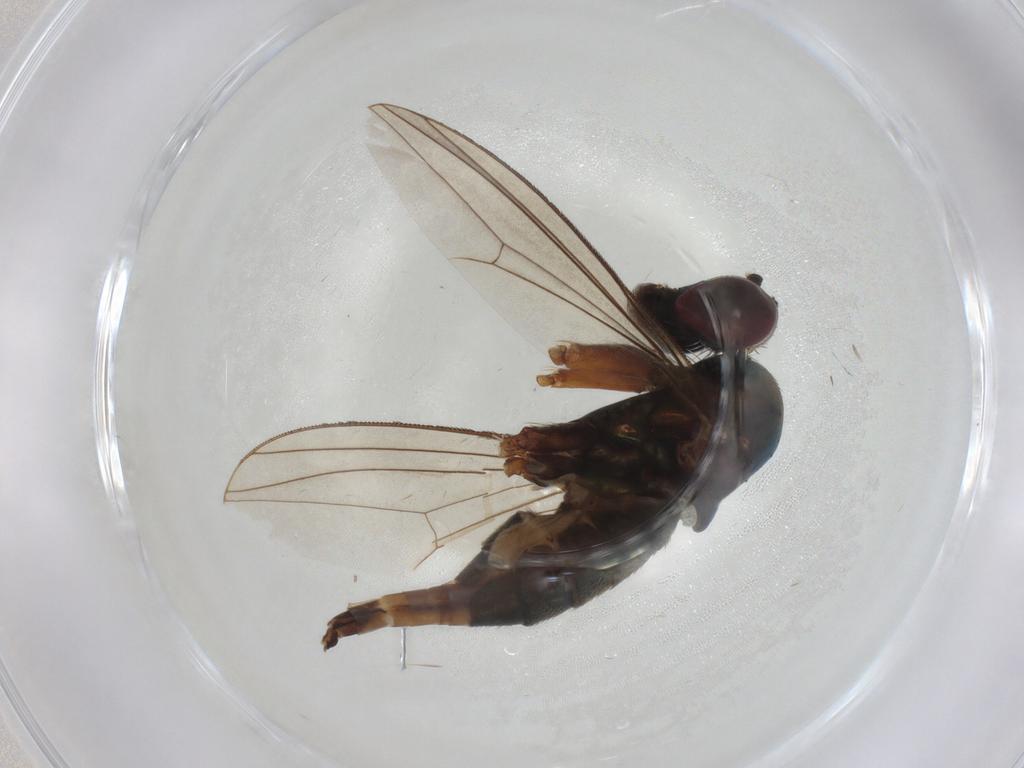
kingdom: Animalia
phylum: Arthropoda
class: Insecta
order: Diptera
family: Dolichopodidae
